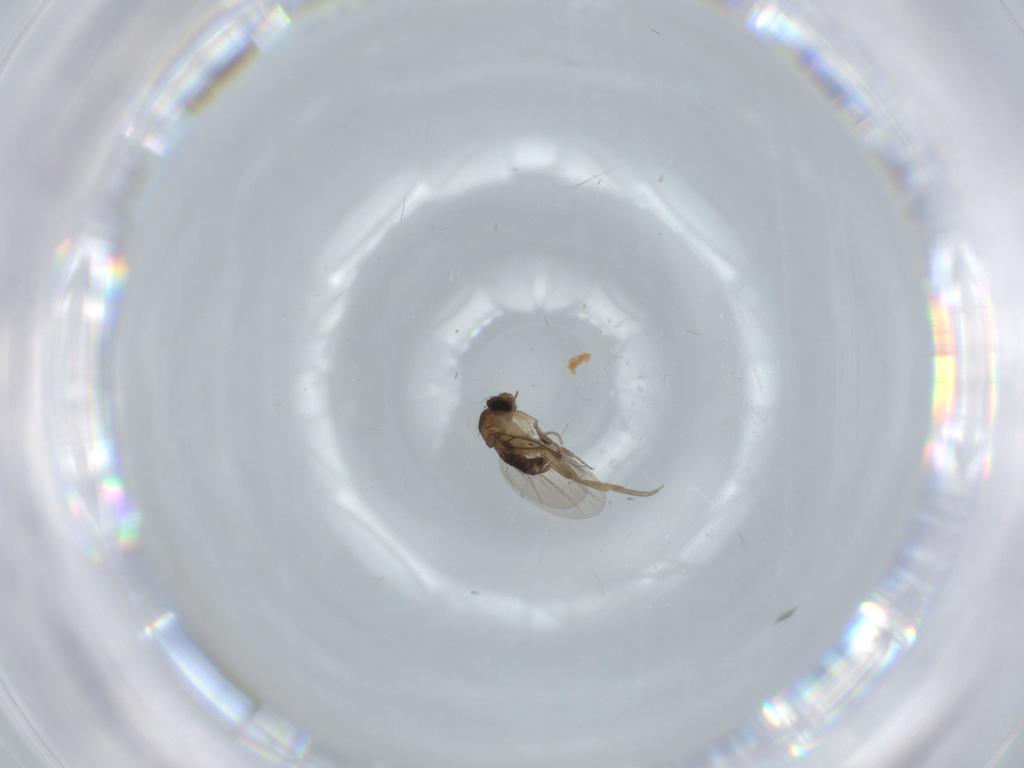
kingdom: Animalia
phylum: Arthropoda
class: Insecta
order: Diptera
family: Phoridae
